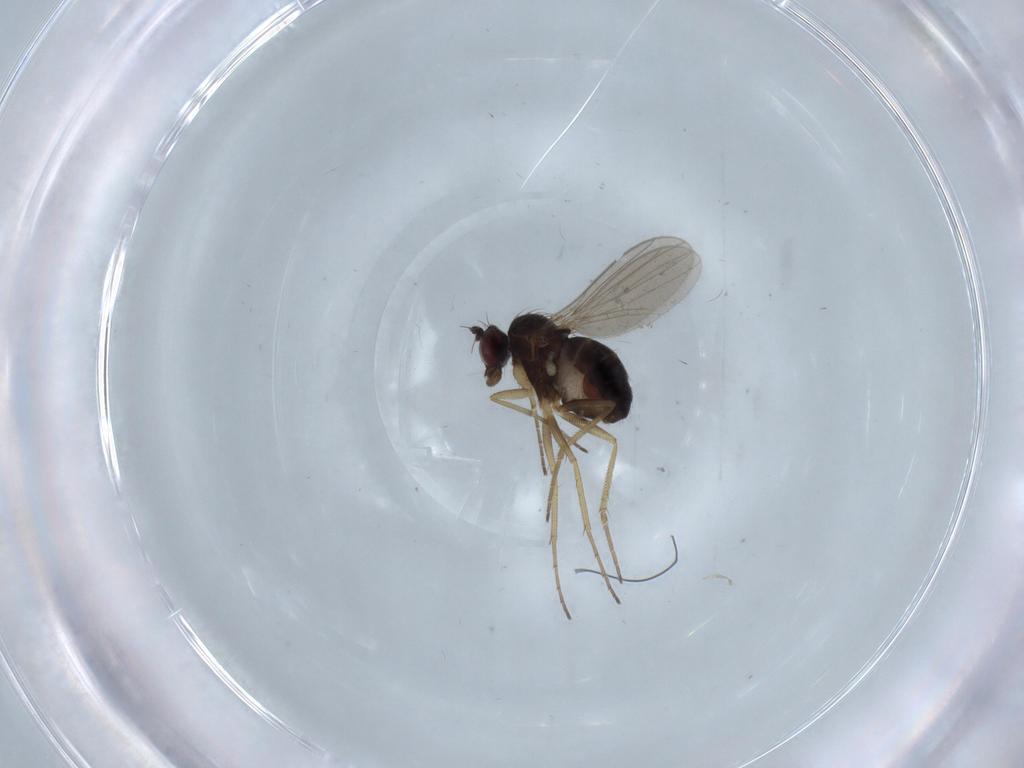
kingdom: Animalia
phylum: Arthropoda
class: Insecta
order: Diptera
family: Dolichopodidae
